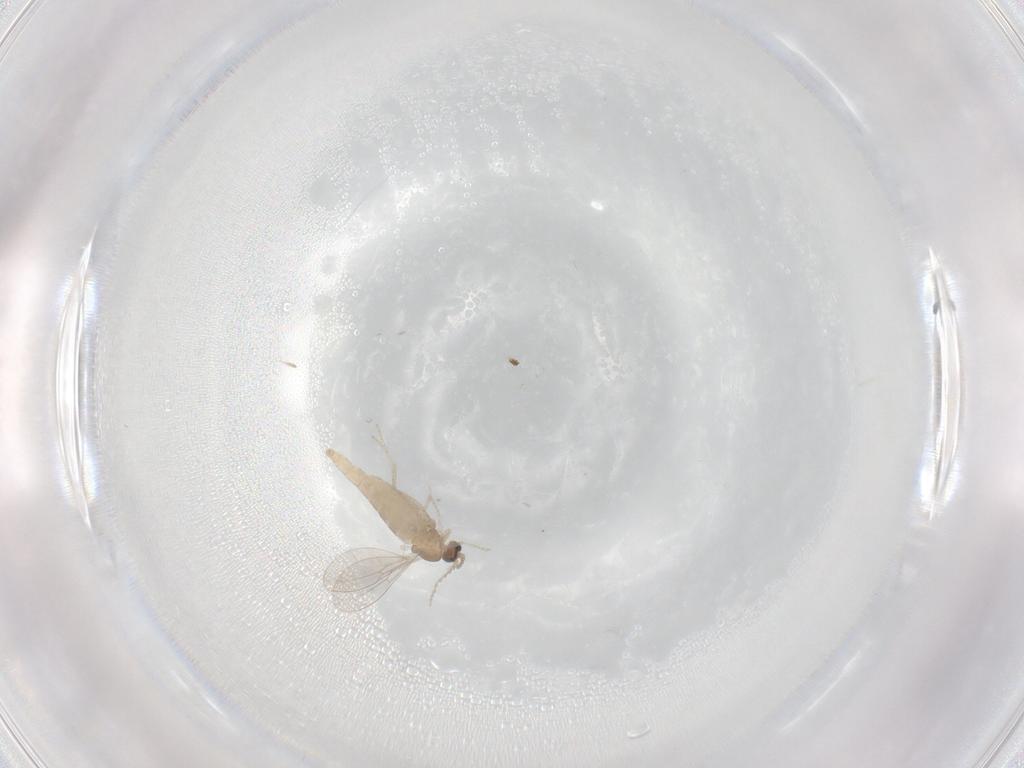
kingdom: Animalia
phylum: Arthropoda
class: Insecta
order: Diptera
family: Cecidomyiidae
